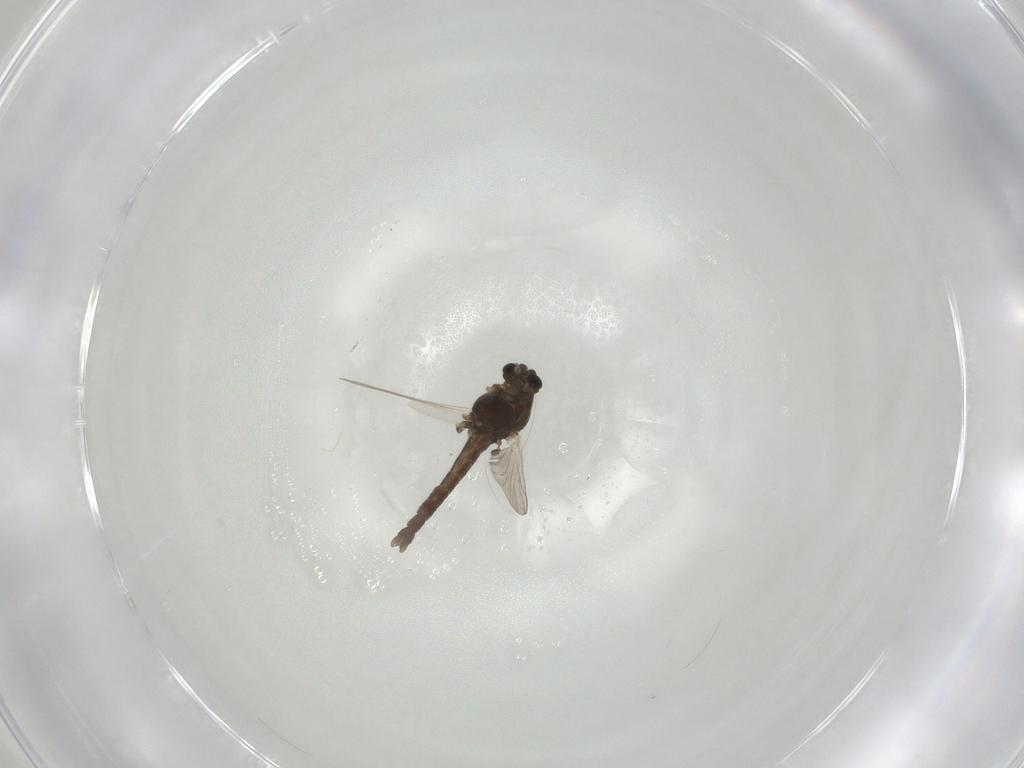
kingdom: Animalia
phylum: Arthropoda
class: Insecta
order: Diptera
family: Chironomidae
